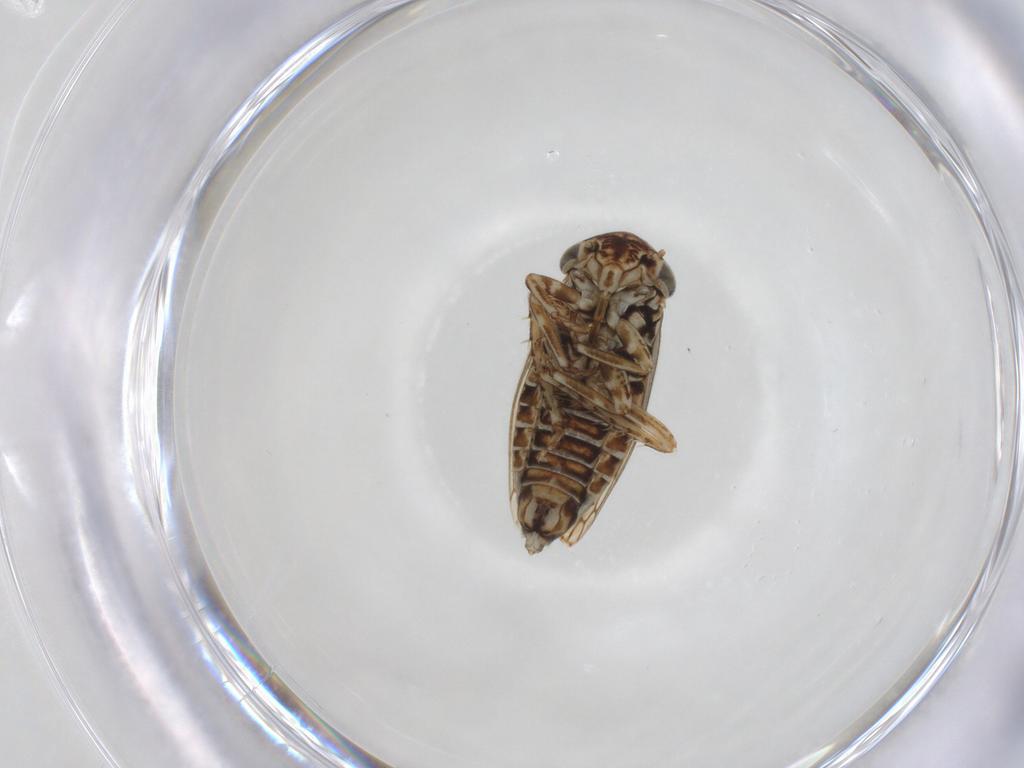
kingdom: Animalia
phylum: Arthropoda
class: Insecta
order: Hemiptera
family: Cicadellidae
